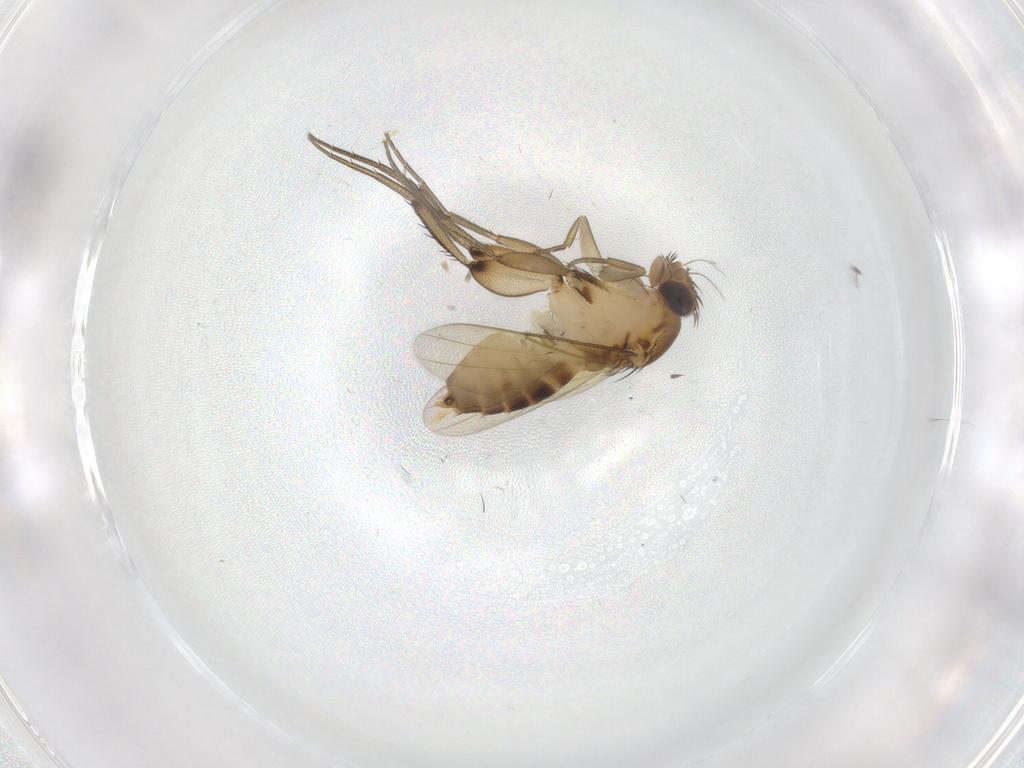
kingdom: Animalia
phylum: Arthropoda
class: Insecta
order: Diptera
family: Phoridae
